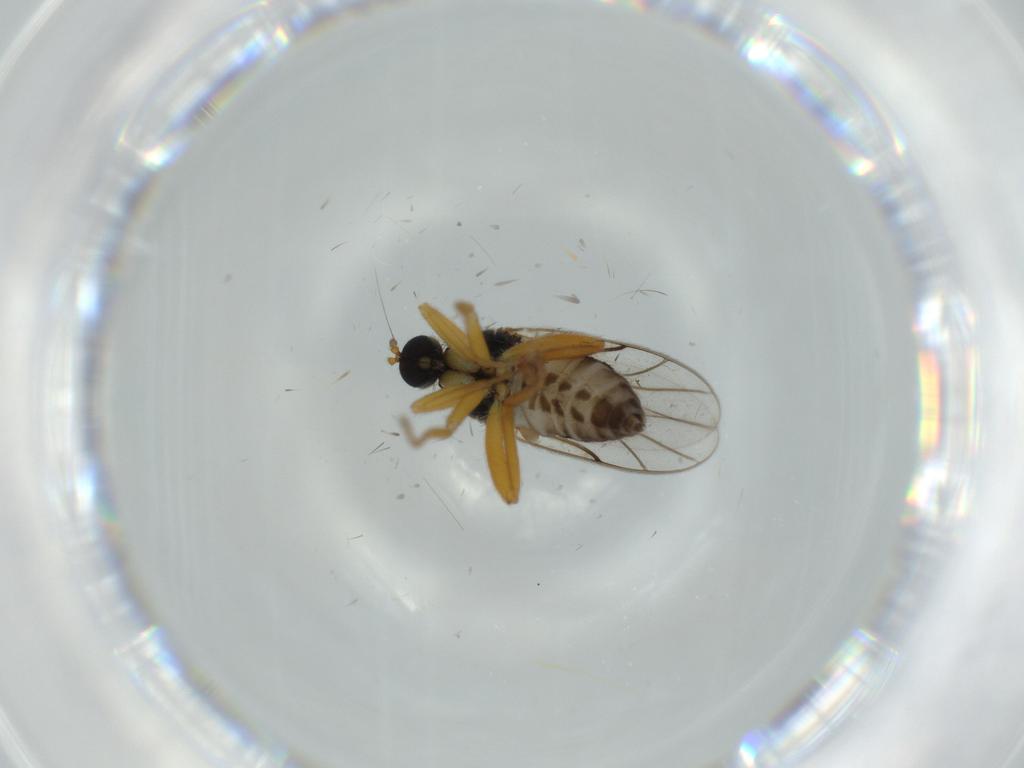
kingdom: Animalia
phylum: Arthropoda
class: Insecta
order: Diptera
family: Hybotidae
